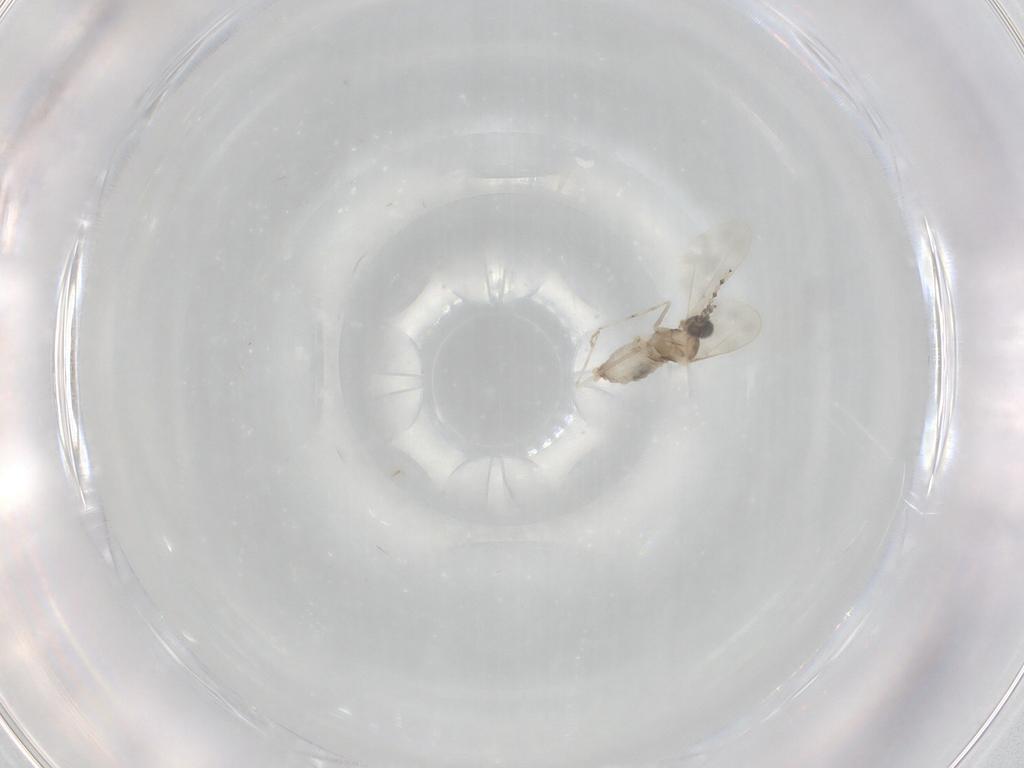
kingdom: Animalia
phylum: Arthropoda
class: Insecta
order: Diptera
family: Cecidomyiidae
